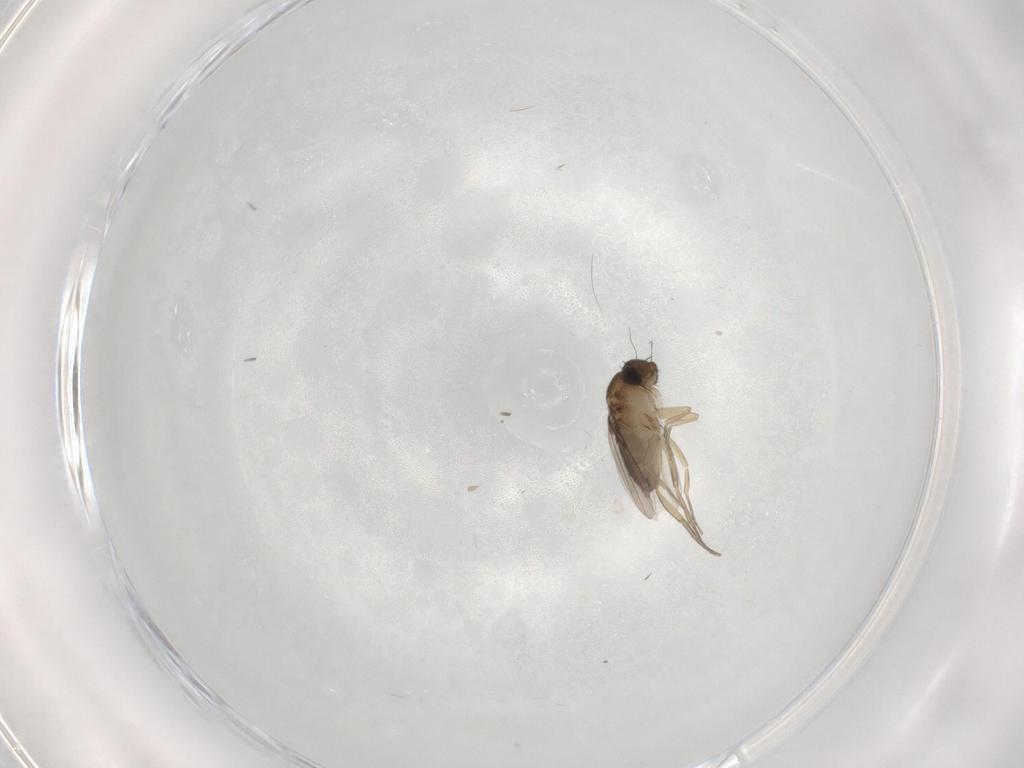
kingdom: Animalia
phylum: Arthropoda
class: Insecta
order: Diptera
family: Phoridae
